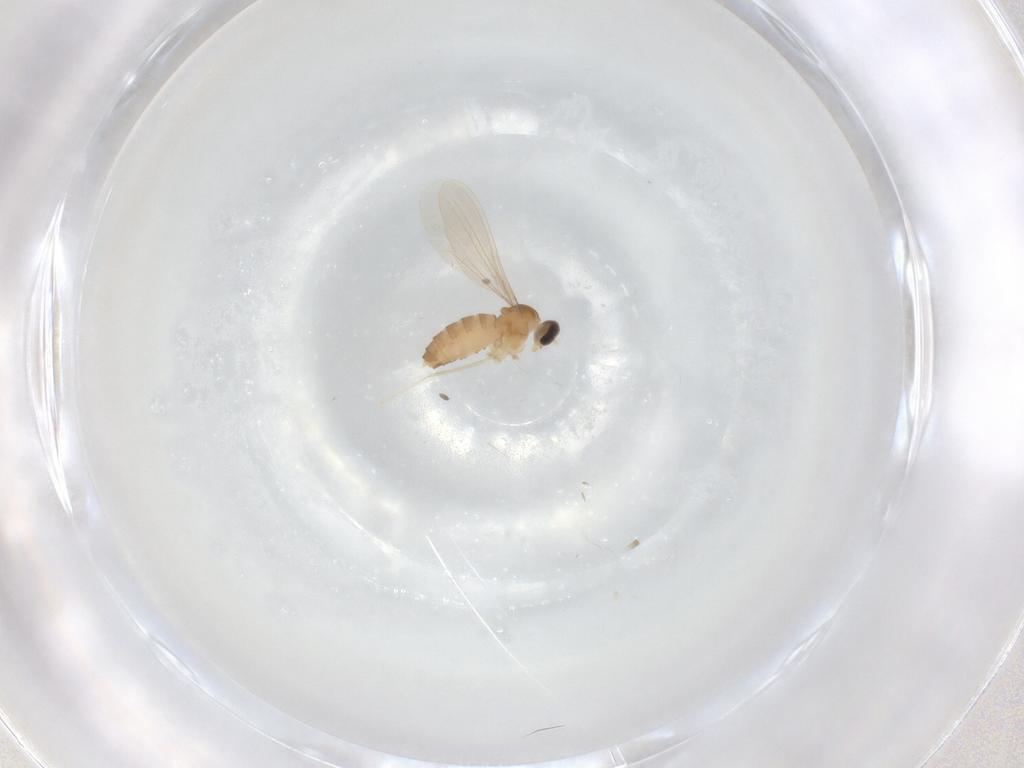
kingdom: Animalia
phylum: Arthropoda
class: Insecta
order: Diptera
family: Cecidomyiidae
